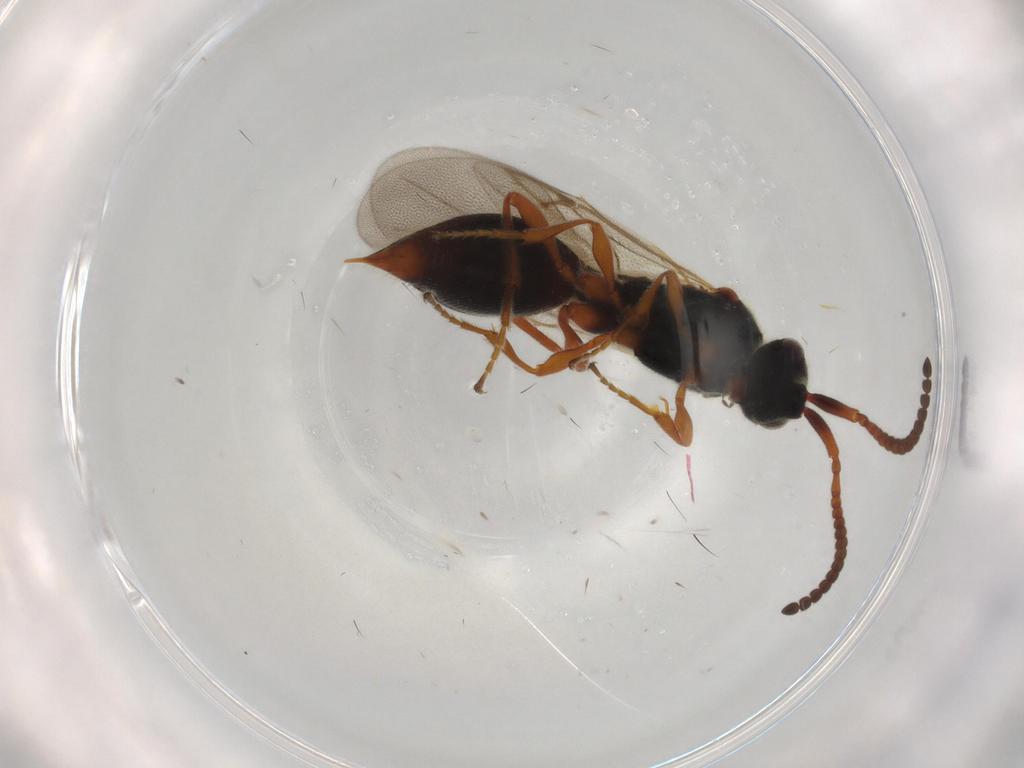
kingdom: Animalia
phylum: Arthropoda
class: Insecta
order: Hymenoptera
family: Diapriidae
